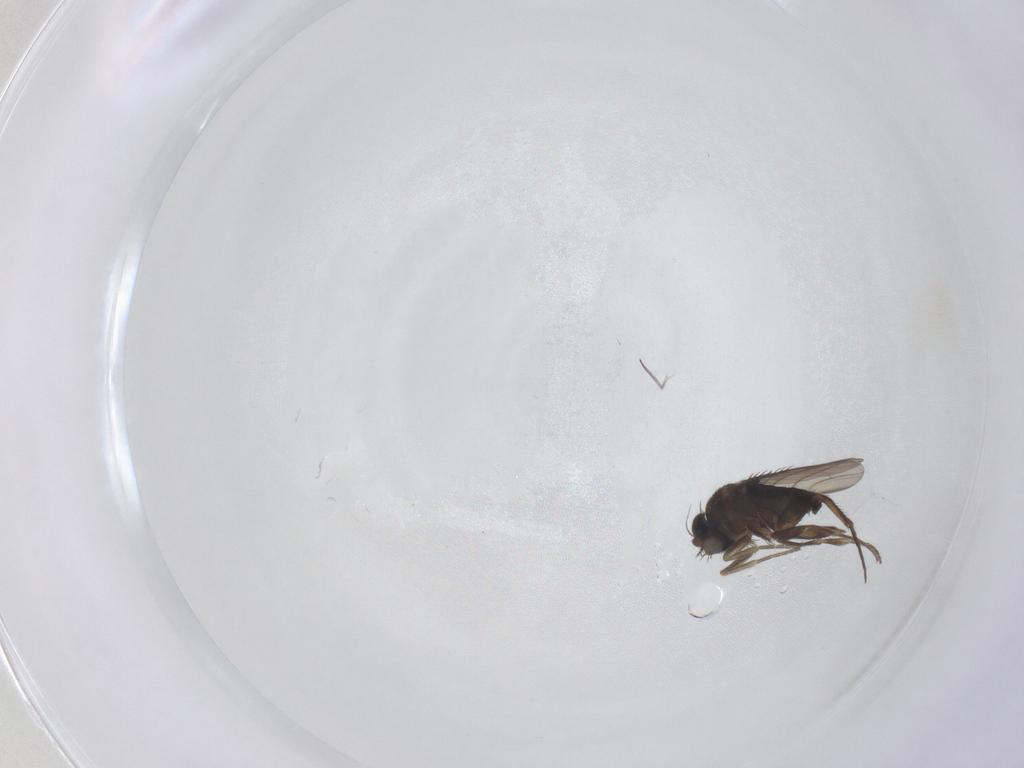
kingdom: Animalia
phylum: Arthropoda
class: Insecta
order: Diptera
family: Phoridae
